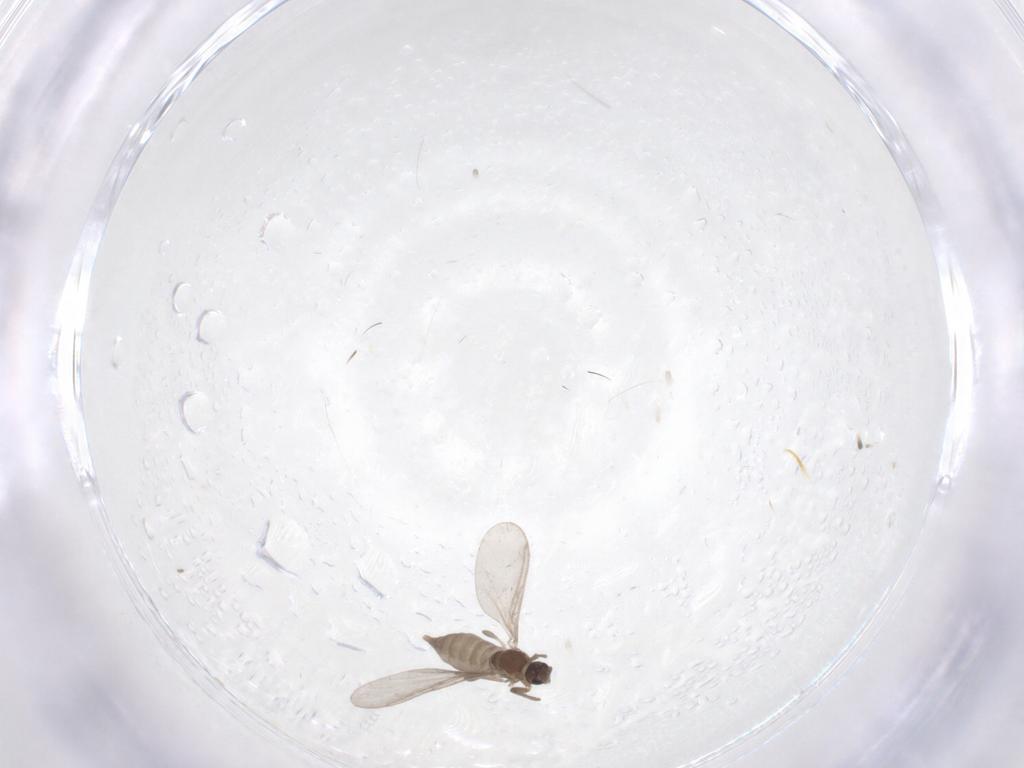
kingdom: Animalia
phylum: Arthropoda
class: Insecta
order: Diptera
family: Ceratopogonidae
